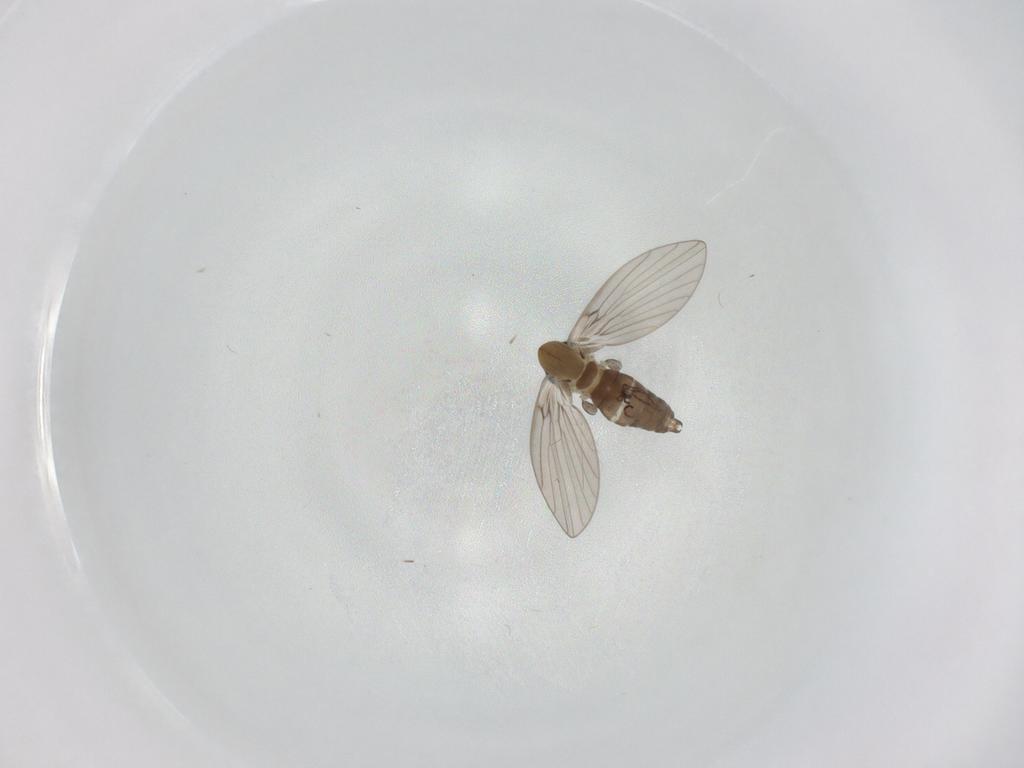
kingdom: Animalia
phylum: Arthropoda
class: Insecta
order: Diptera
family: Psychodidae
